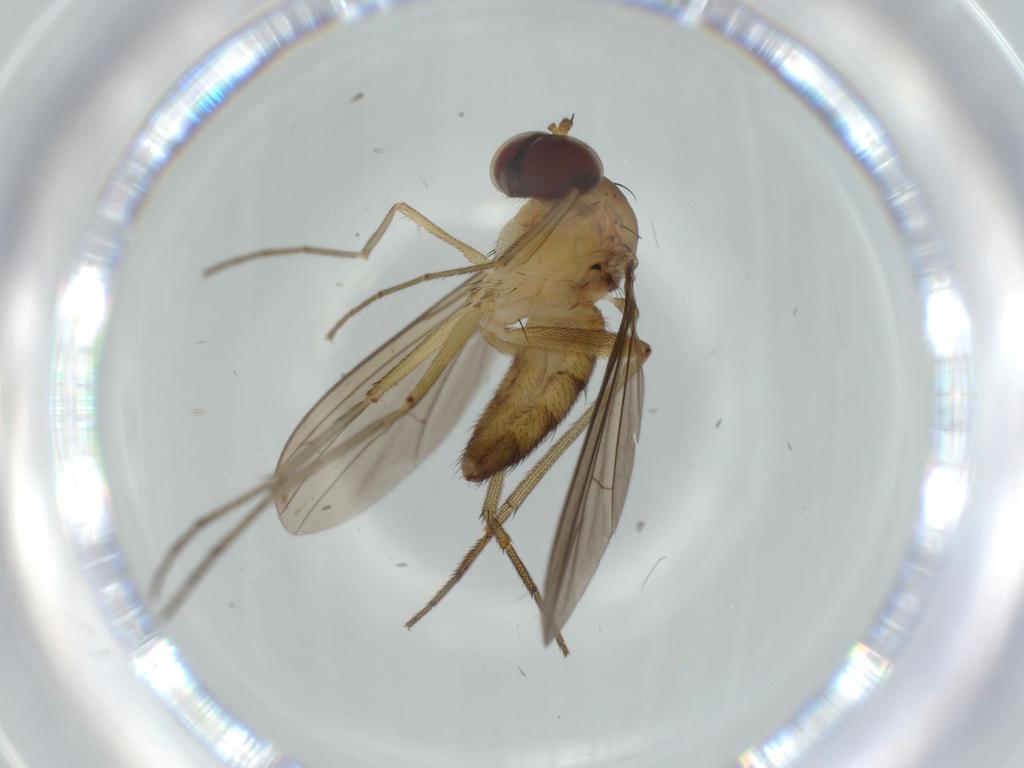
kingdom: Animalia
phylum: Arthropoda
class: Insecta
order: Diptera
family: Dolichopodidae
